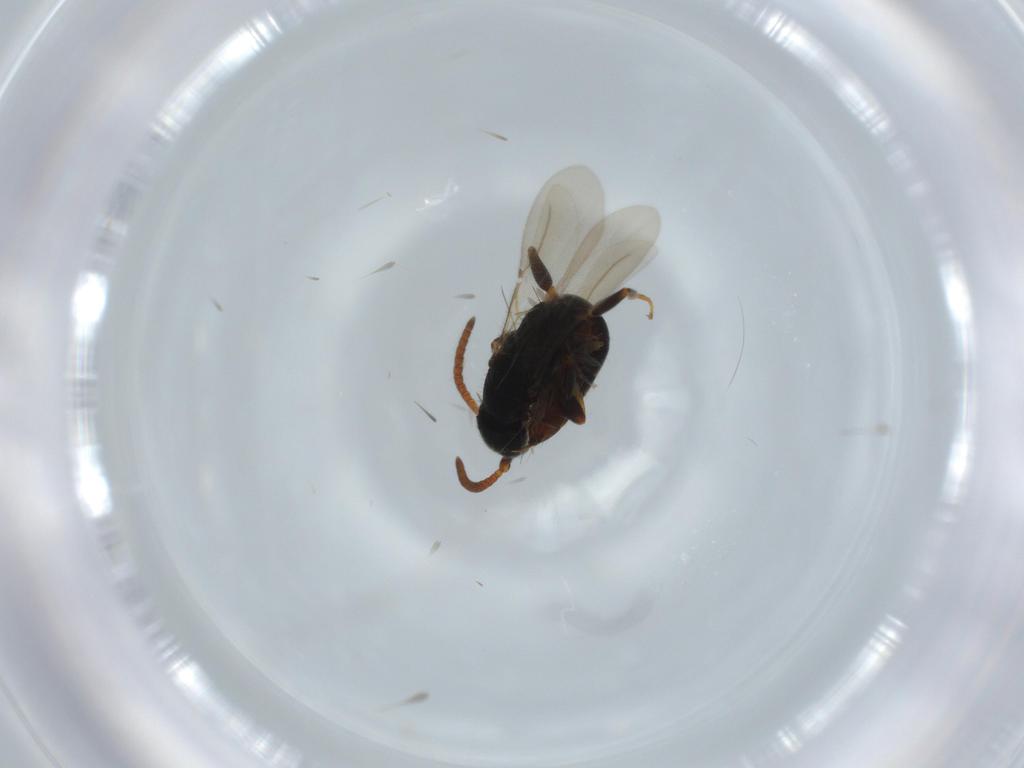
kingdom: Animalia
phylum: Arthropoda
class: Insecta
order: Hymenoptera
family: Bethylidae
